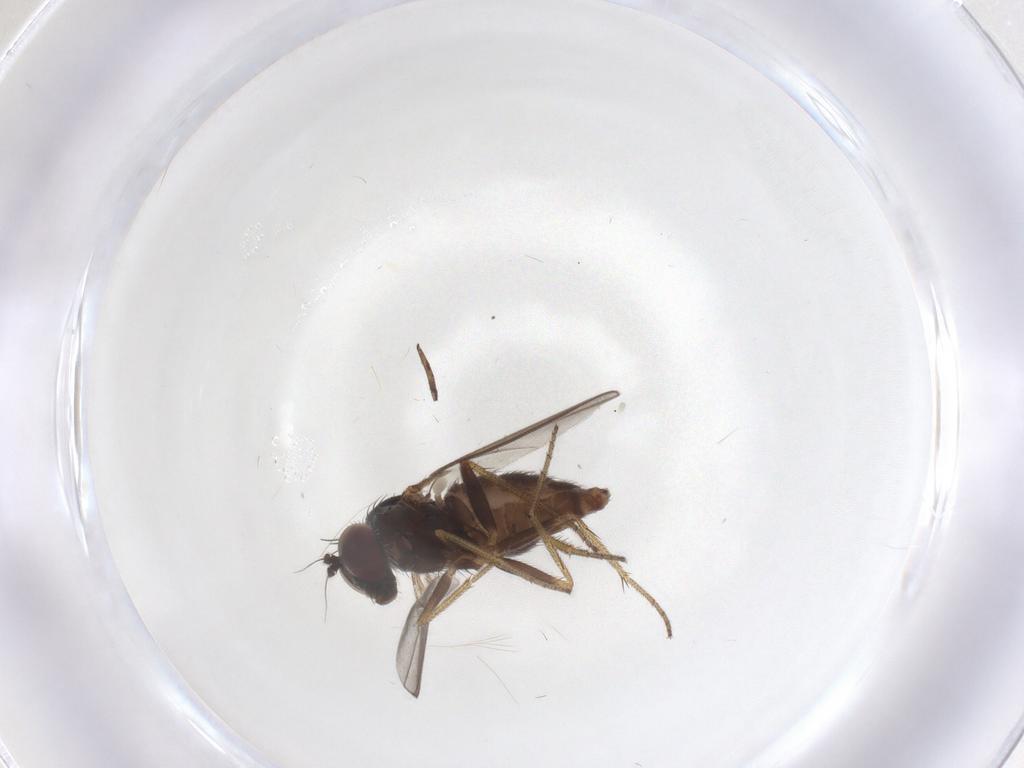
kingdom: Animalia
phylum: Arthropoda
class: Insecta
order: Diptera
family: Dolichopodidae
